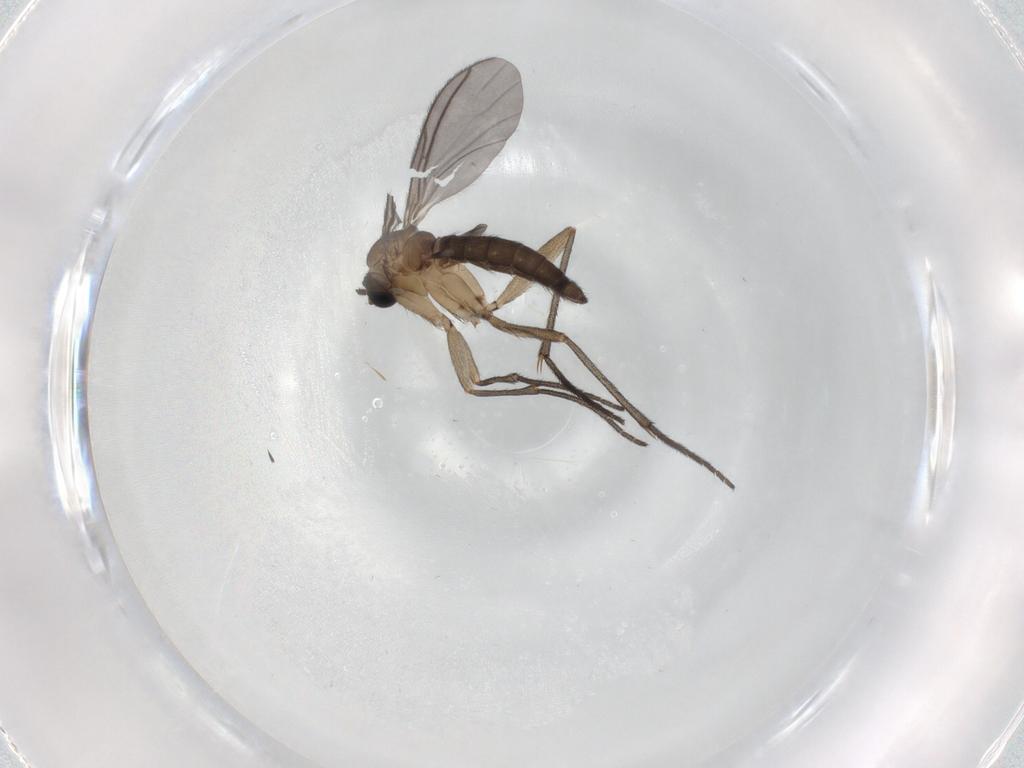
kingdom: Animalia
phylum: Arthropoda
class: Insecta
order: Diptera
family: Sciaridae
